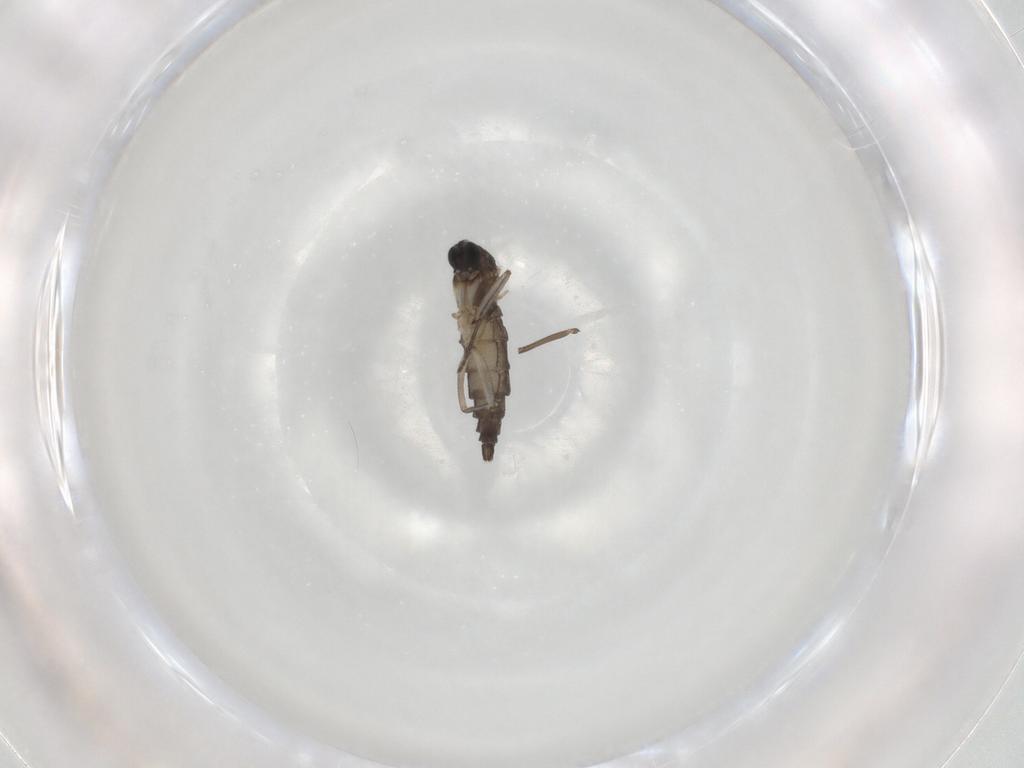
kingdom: Animalia
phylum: Arthropoda
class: Insecta
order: Diptera
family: Sciaridae
